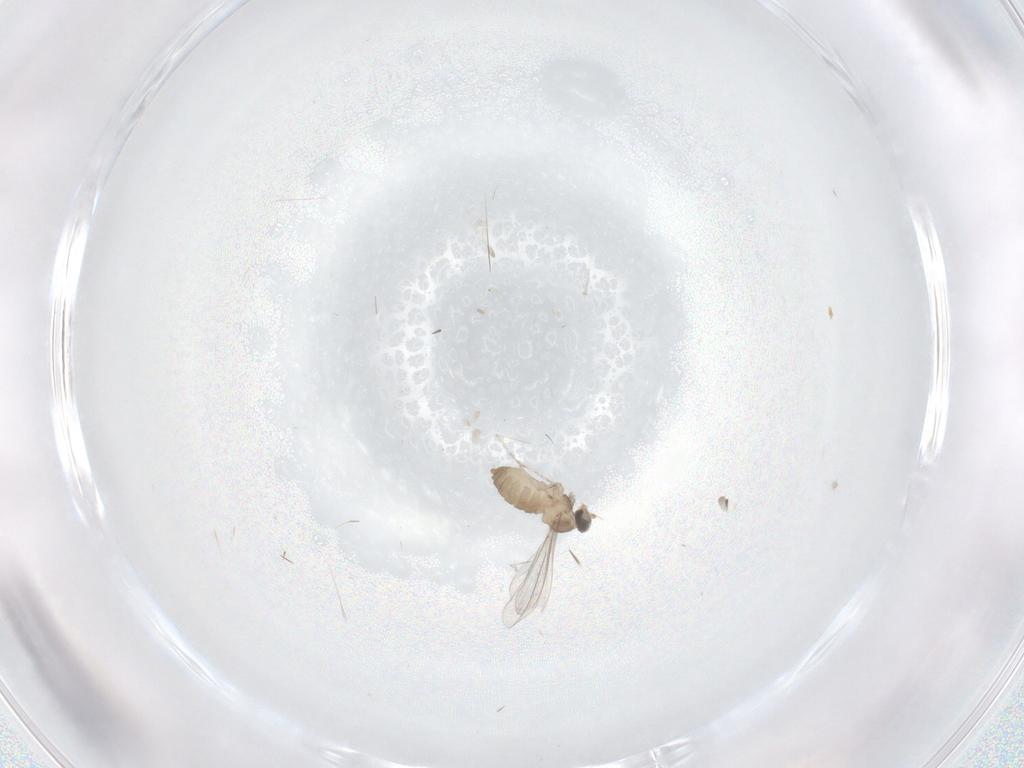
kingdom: Animalia
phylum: Arthropoda
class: Insecta
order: Diptera
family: Cecidomyiidae
